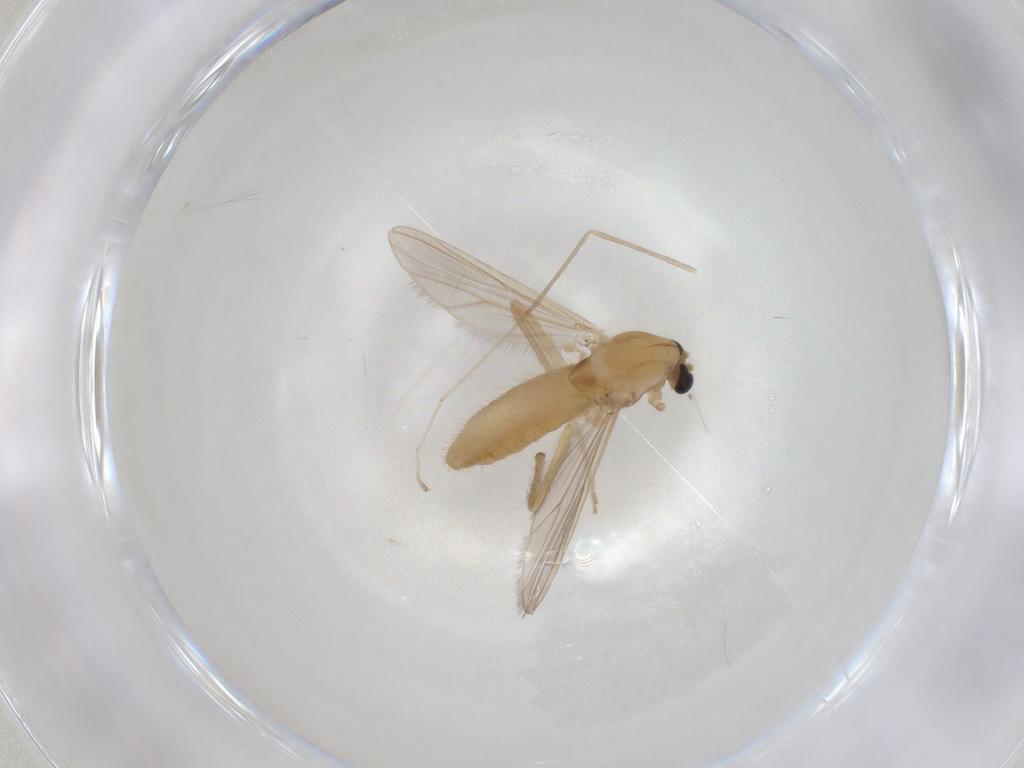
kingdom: Animalia
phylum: Arthropoda
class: Insecta
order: Diptera
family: Chironomidae
